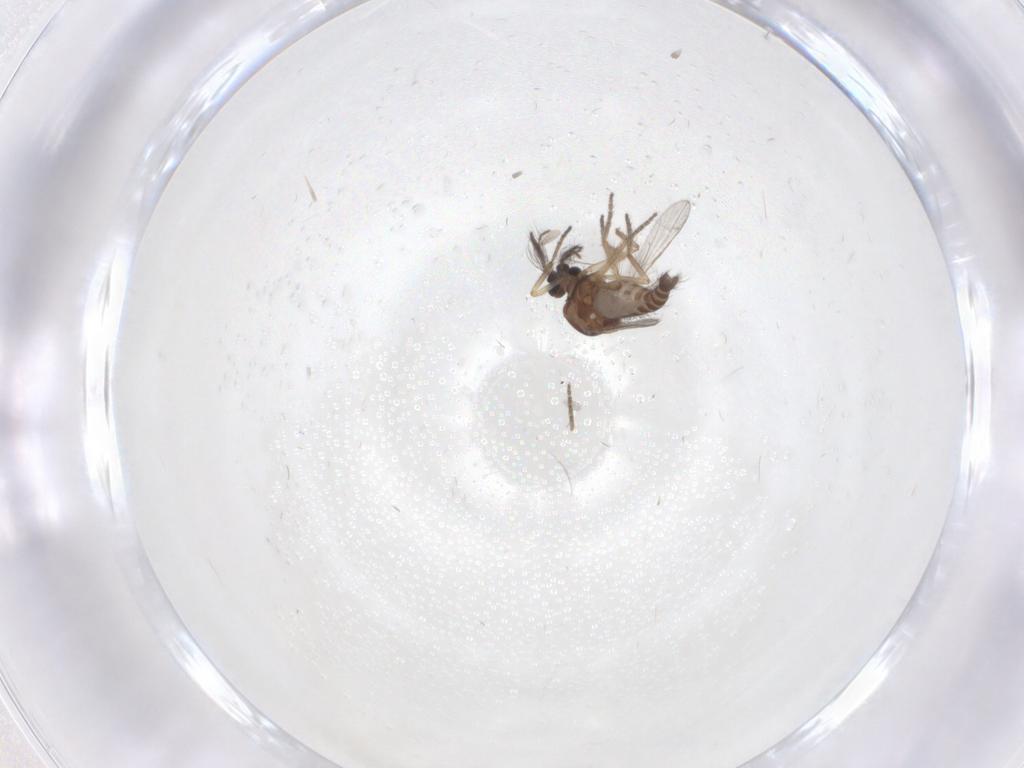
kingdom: Animalia
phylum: Arthropoda
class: Insecta
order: Diptera
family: Ceratopogonidae
